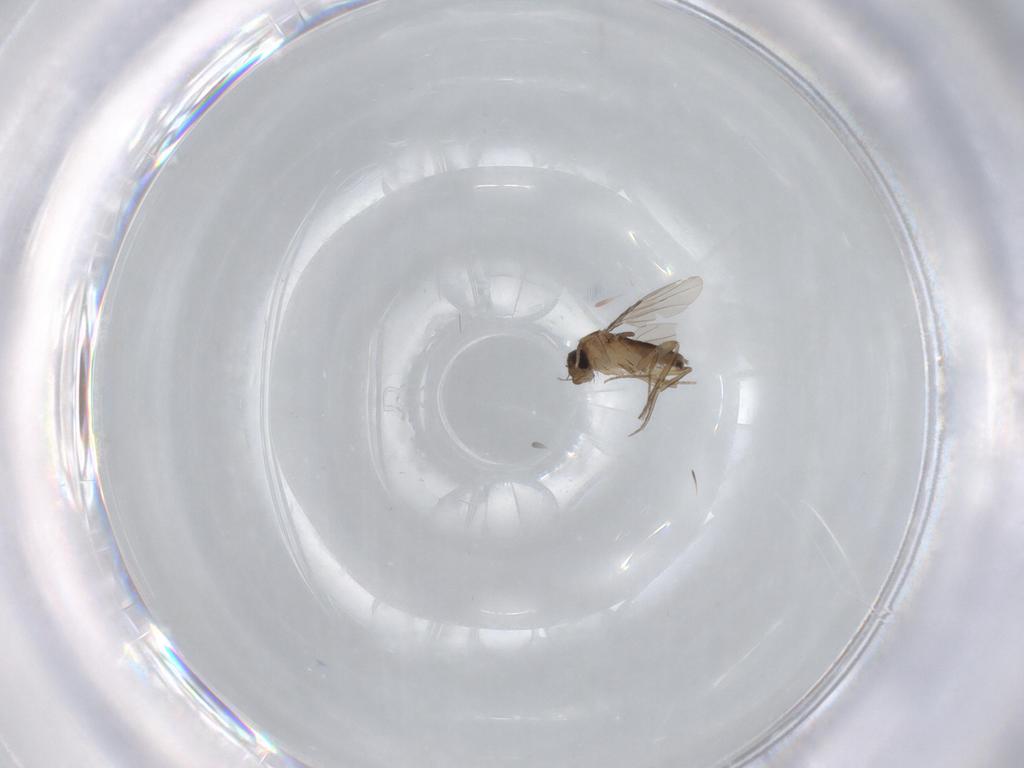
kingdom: Animalia
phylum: Arthropoda
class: Insecta
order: Diptera
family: Phoridae
